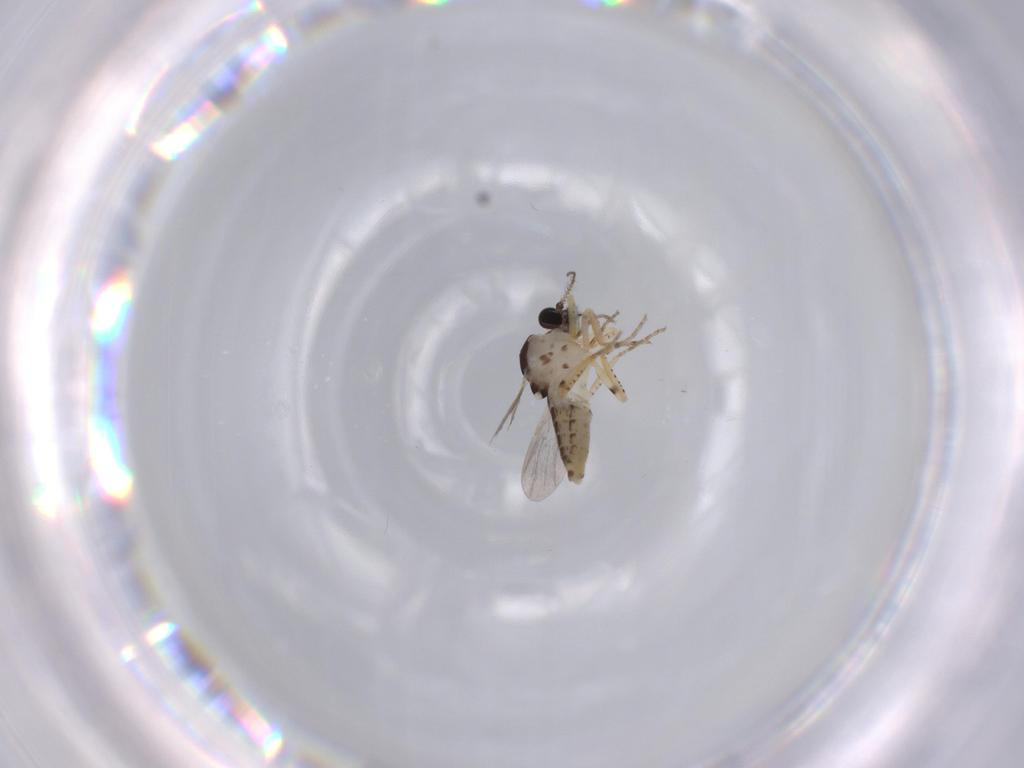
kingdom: Animalia
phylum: Arthropoda
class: Insecta
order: Diptera
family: Ceratopogonidae
